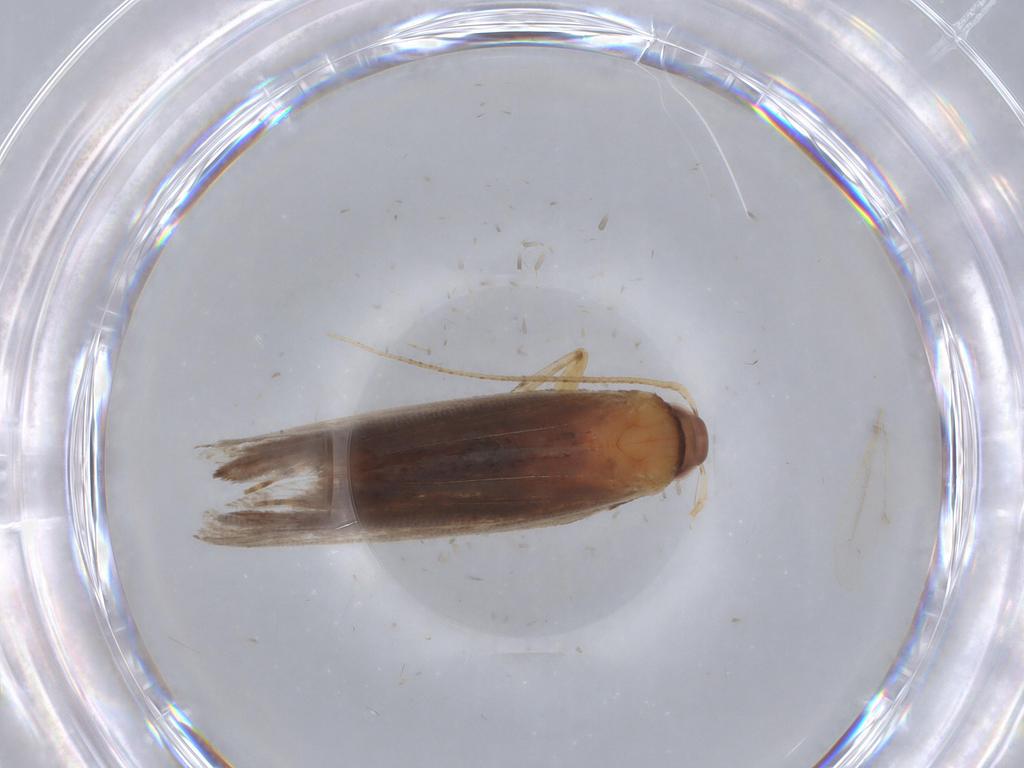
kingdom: Animalia
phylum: Arthropoda
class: Insecta
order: Lepidoptera
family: Gelechiidae
